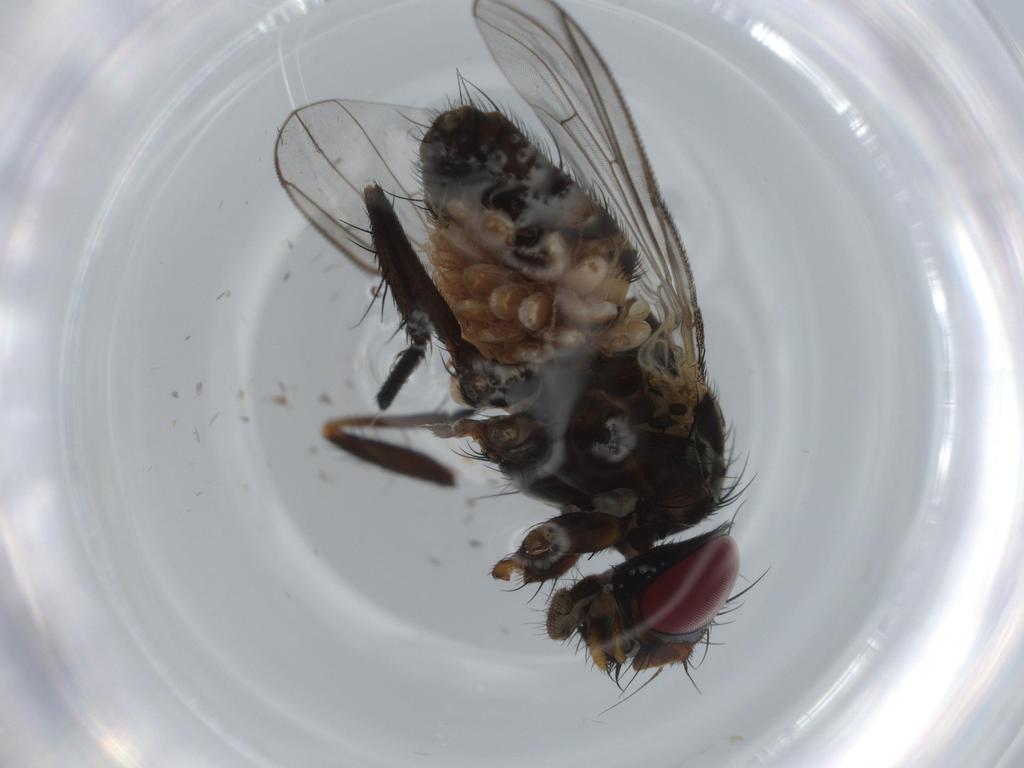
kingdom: Animalia
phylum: Arthropoda
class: Insecta
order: Diptera
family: Drosophilidae
